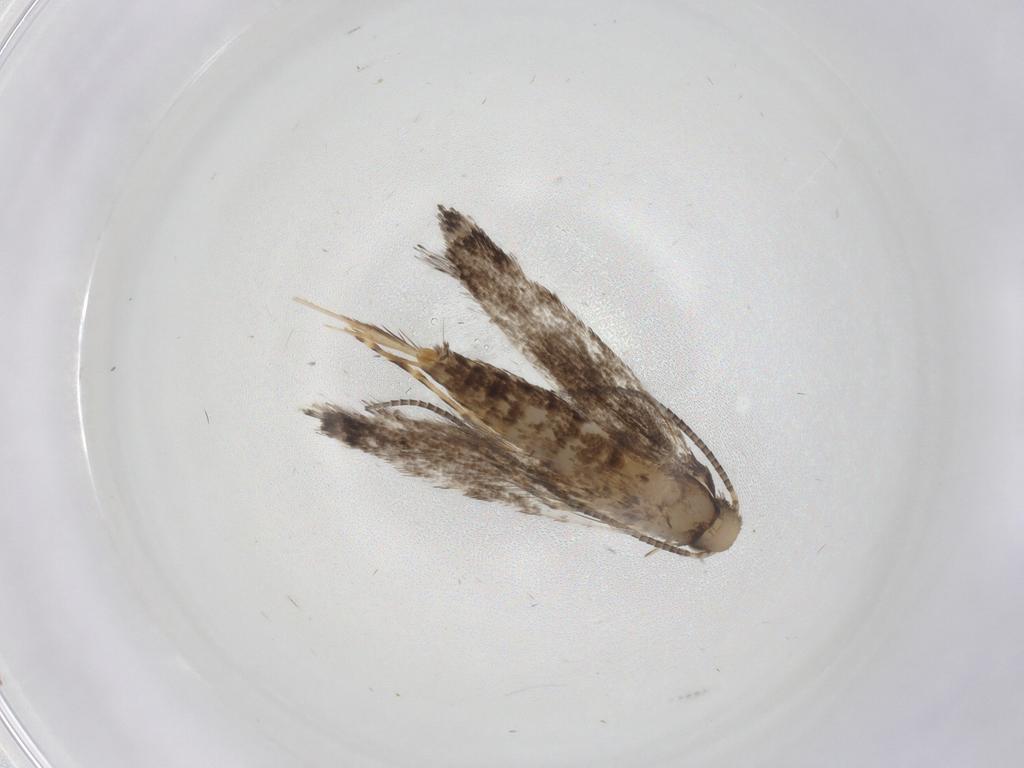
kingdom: Animalia
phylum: Arthropoda
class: Insecta
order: Lepidoptera
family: Gracillariidae
